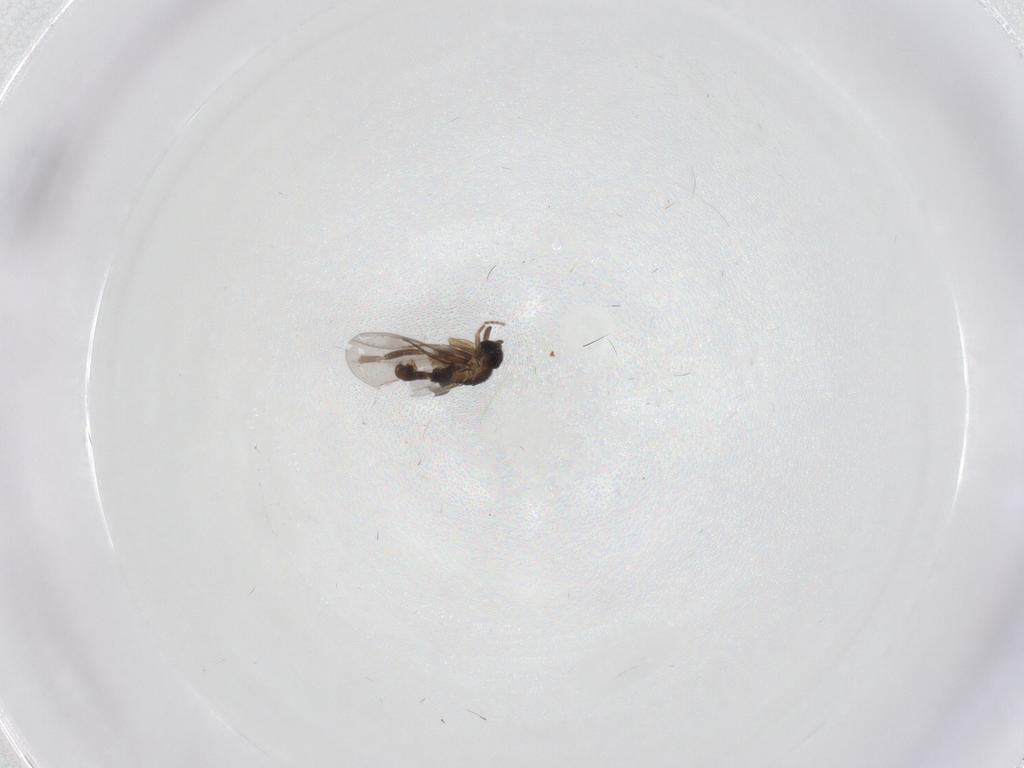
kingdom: Animalia
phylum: Arthropoda
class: Insecta
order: Diptera
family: Phoridae
